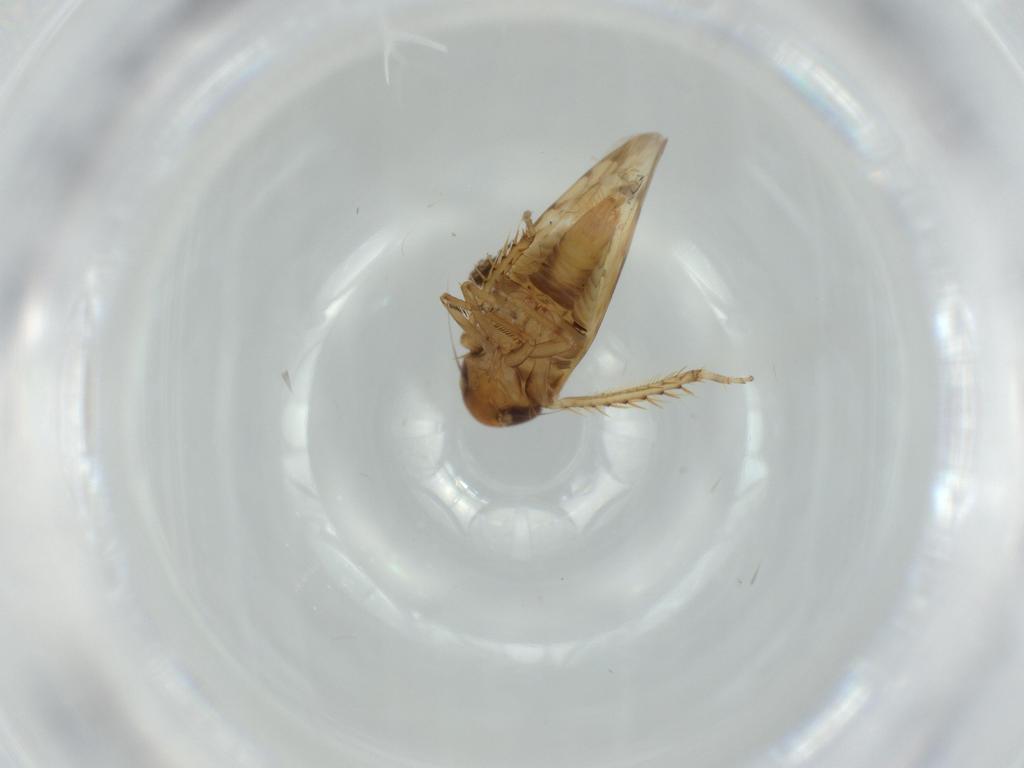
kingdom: Animalia
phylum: Arthropoda
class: Insecta
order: Hemiptera
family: Cicadellidae
